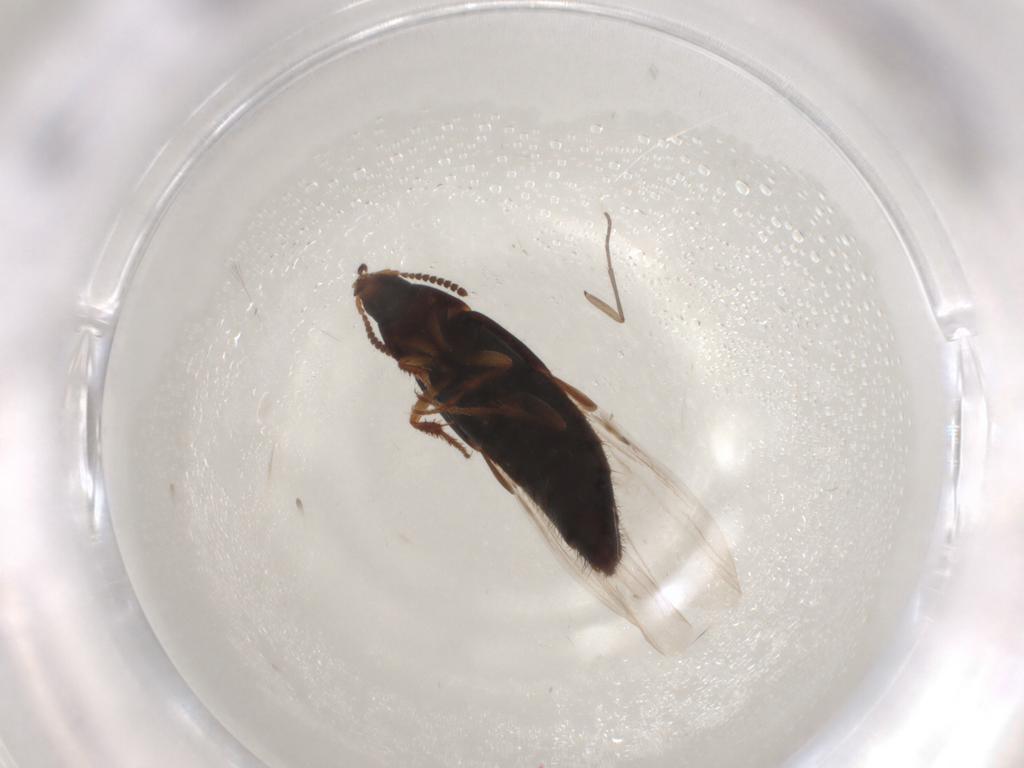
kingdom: Animalia
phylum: Arthropoda
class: Insecta
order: Coleoptera
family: Staphylinidae
